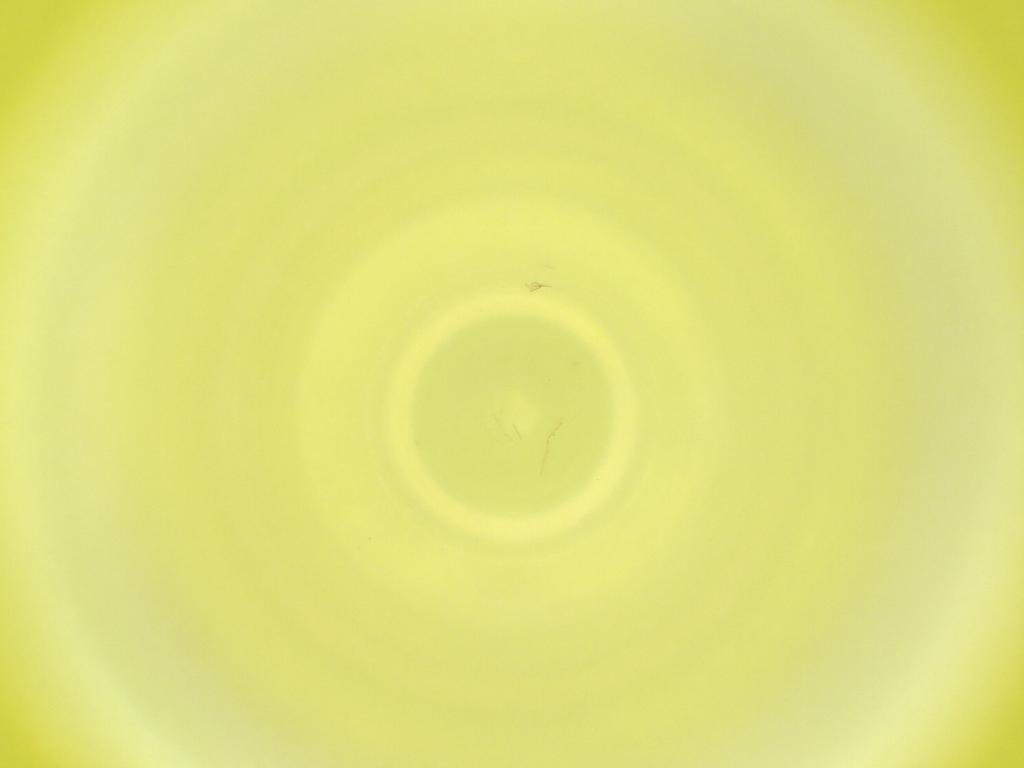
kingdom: Animalia
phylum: Arthropoda
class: Insecta
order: Diptera
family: Cecidomyiidae
